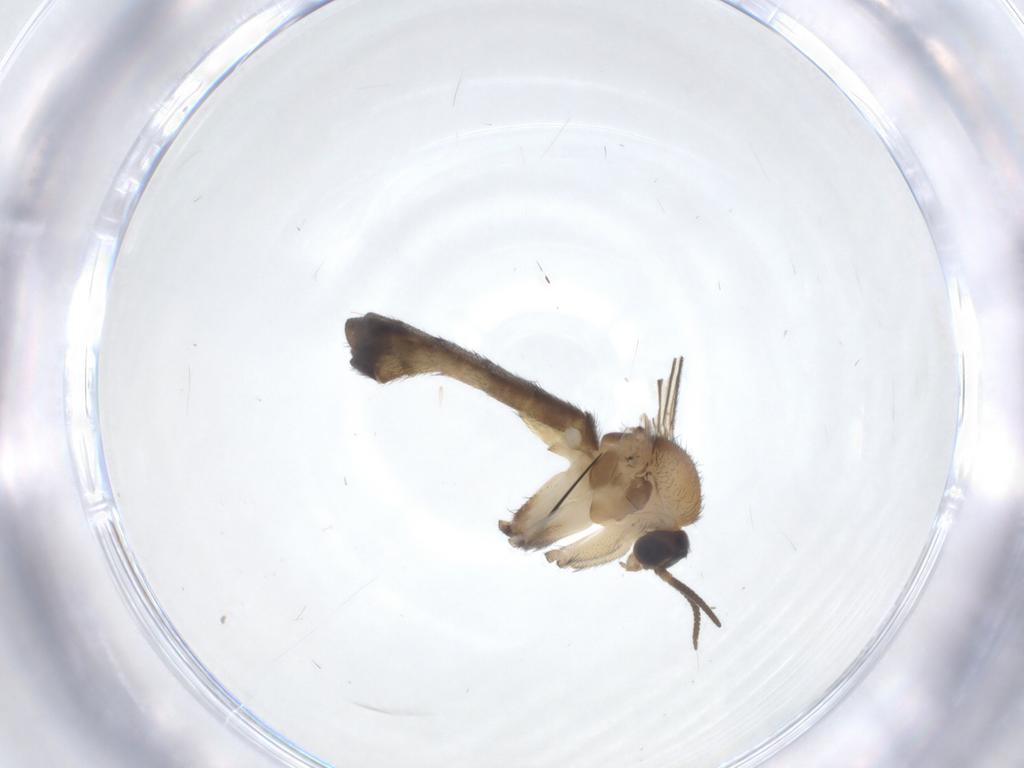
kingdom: Animalia
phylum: Arthropoda
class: Insecta
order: Diptera
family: Keroplatidae
